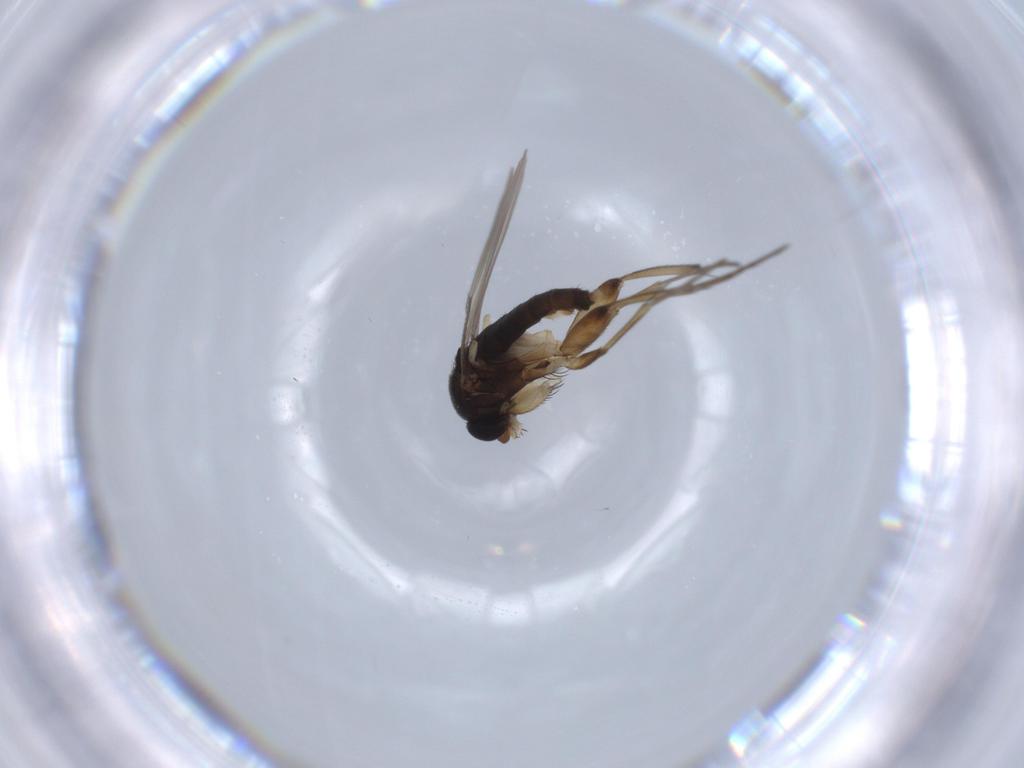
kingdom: Animalia
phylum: Arthropoda
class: Insecta
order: Diptera
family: Phoridae
